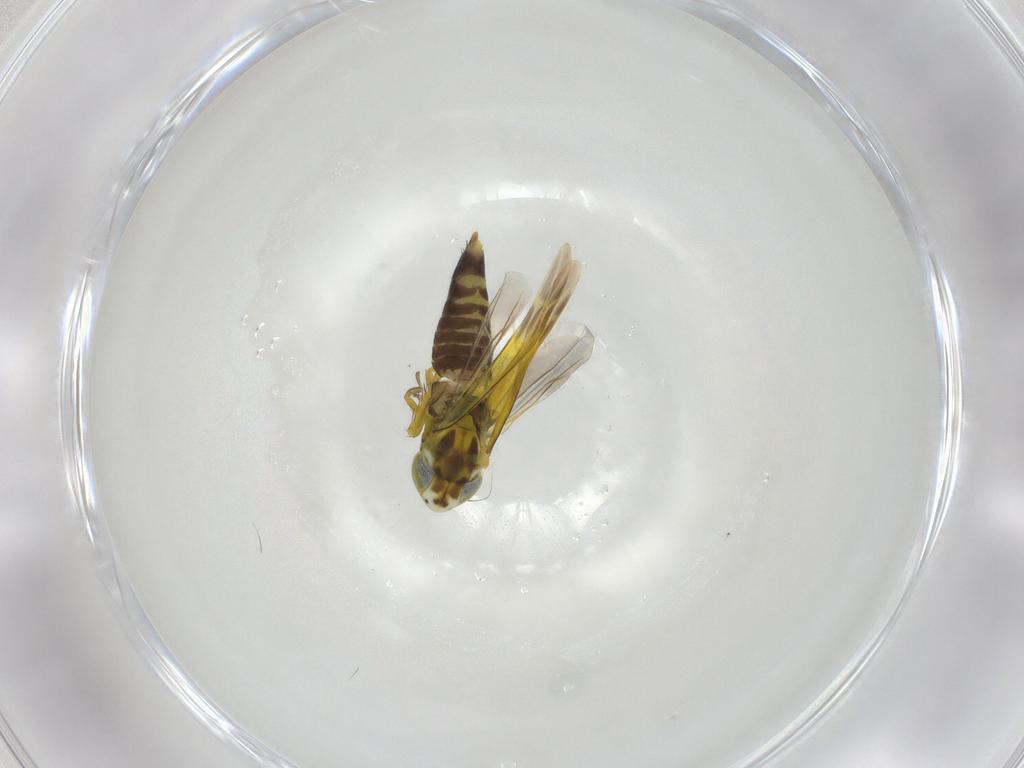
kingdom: Animalia
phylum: Arthropoda
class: Insecta
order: Hemiptera
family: Cicadellidae
